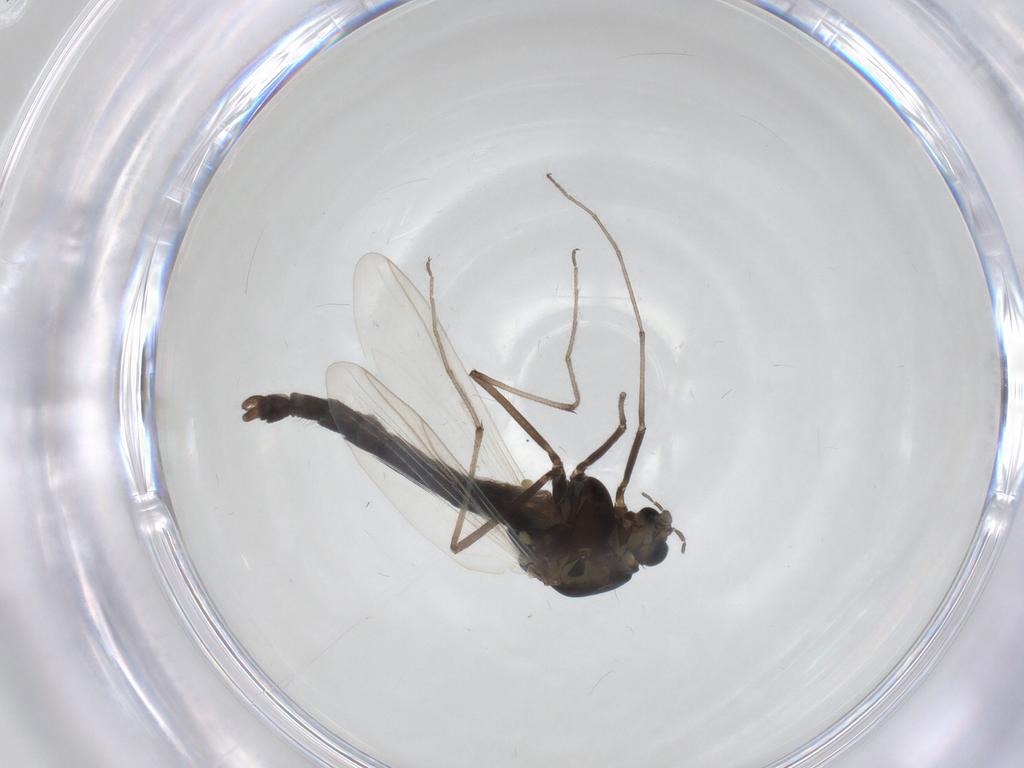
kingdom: Animalia
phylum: Arthropoda
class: Insecta
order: Diptera
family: Chironomidae
